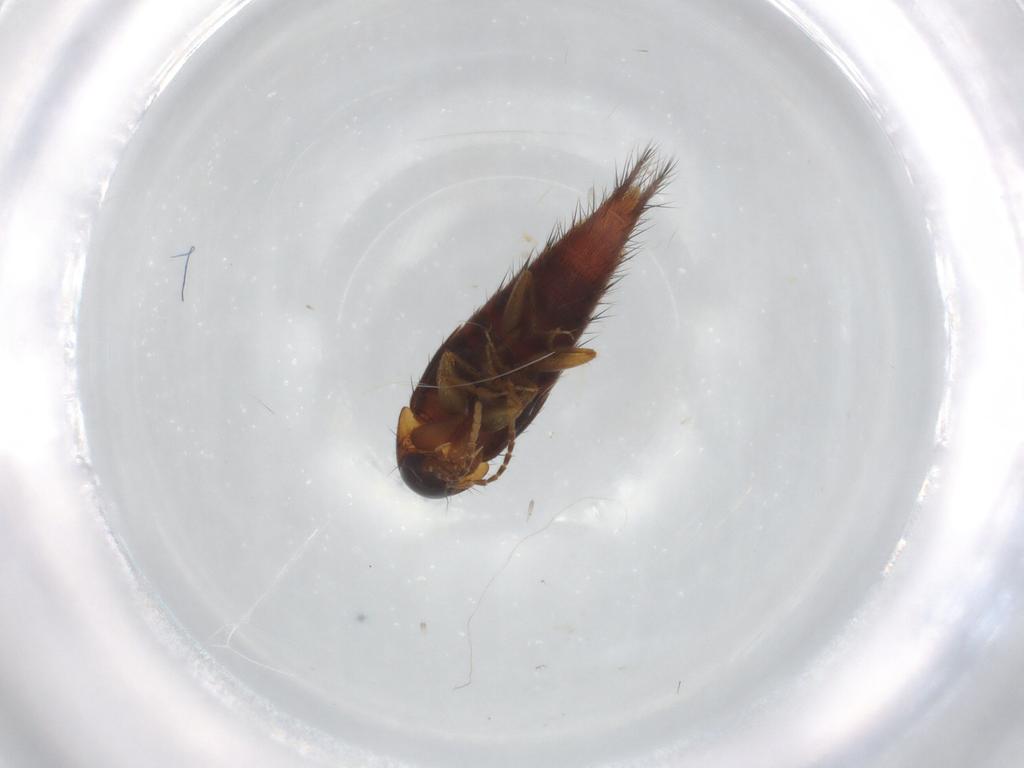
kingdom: Animalia
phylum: Arthropoda
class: Insecta
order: Coleoptera
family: Staphylinidae
